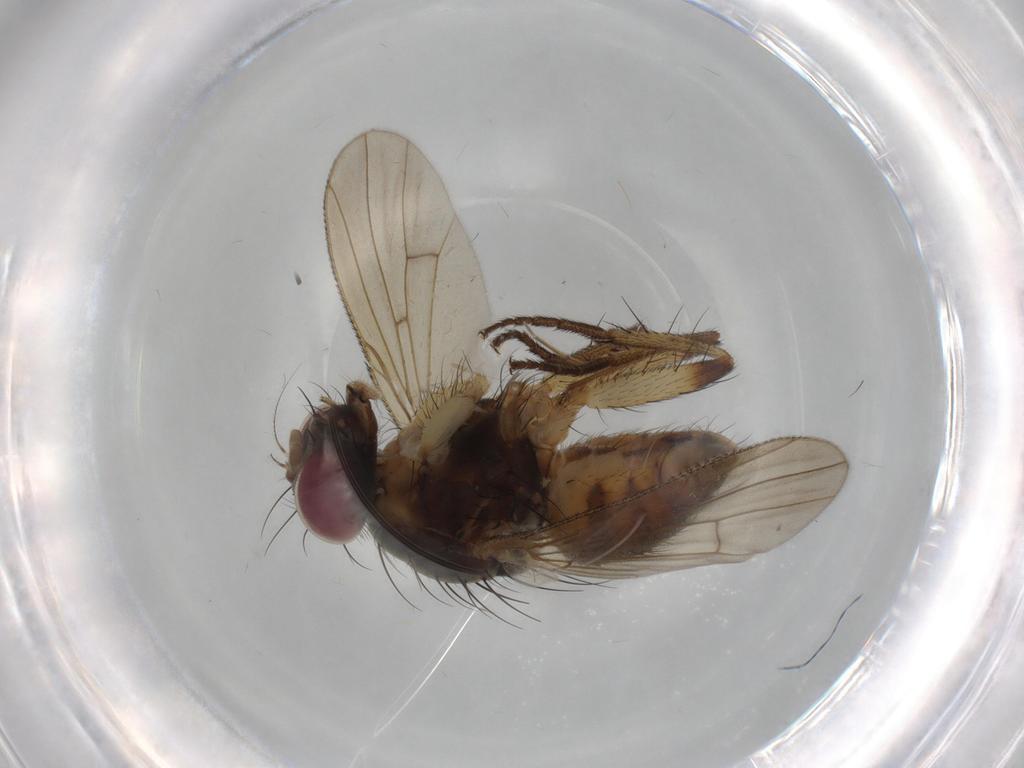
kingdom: Animalia
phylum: Arthropoda
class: Insecta
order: Diptera
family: Muscidae
